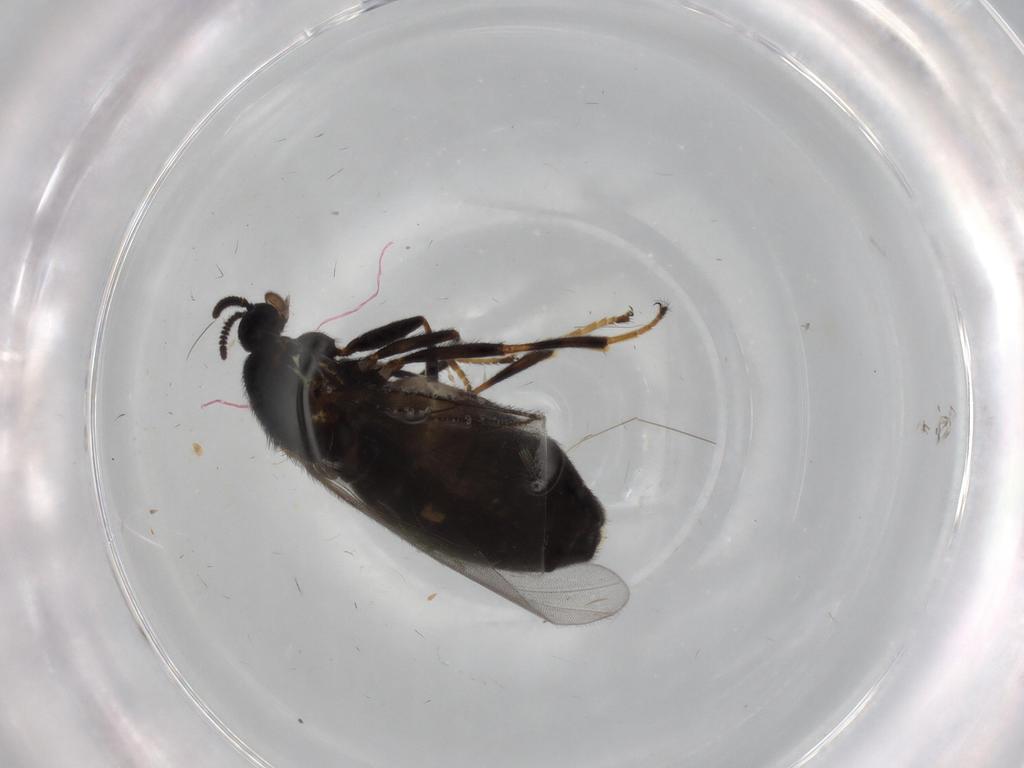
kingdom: Animalia
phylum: Arthropoda
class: Insecta
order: Diptera
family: Scatopsidae
